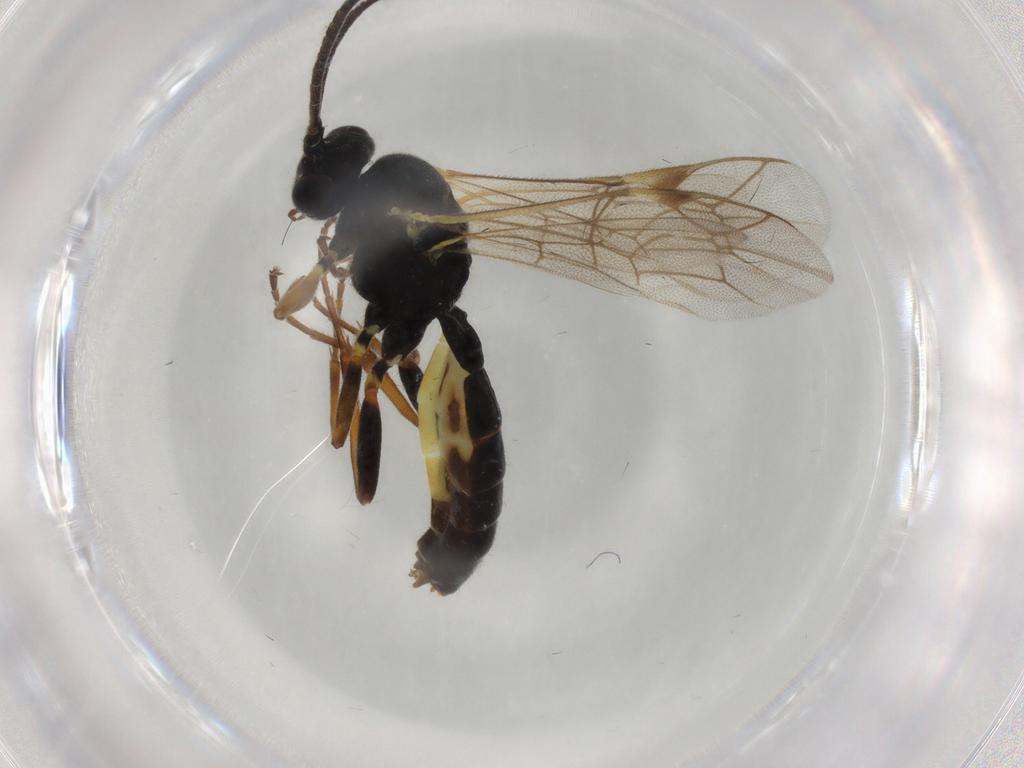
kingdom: Animalia
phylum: Arthropoda
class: Insecta
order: Hymenoptera
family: Ichneumonidae
